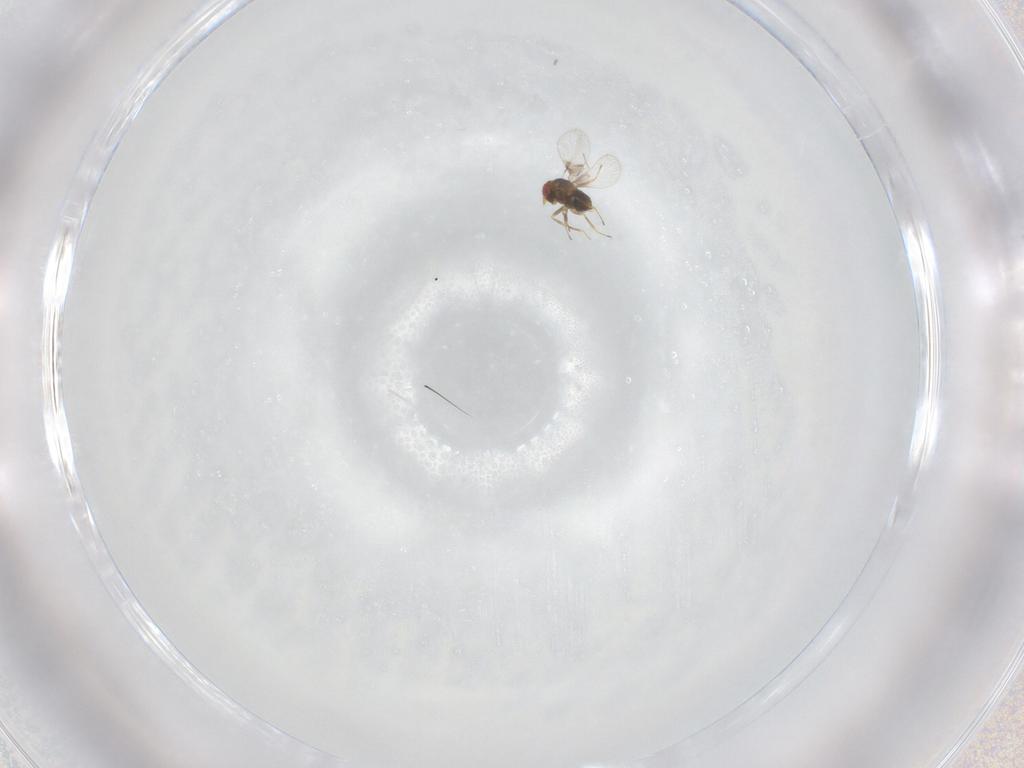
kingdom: Animalia
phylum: Arthropoda
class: Insecta
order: Hymenoptera
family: Trichogrammatidae
